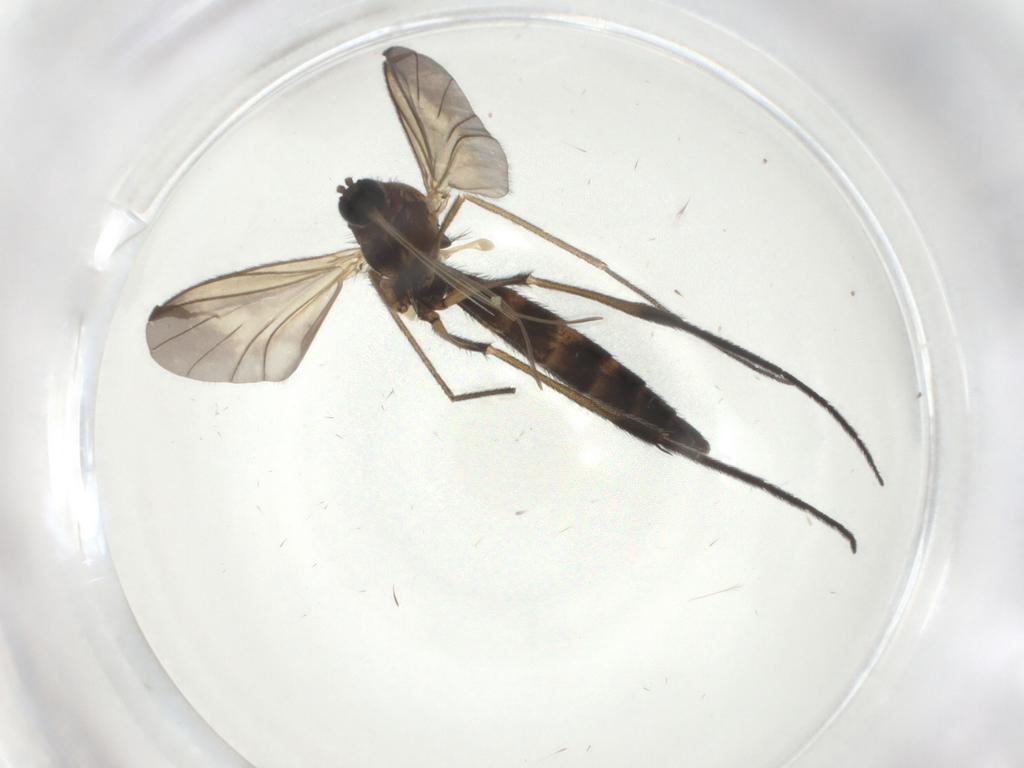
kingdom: Animalia
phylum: Arthropoda
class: Insecta
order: Diptera
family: Keroplatidae
